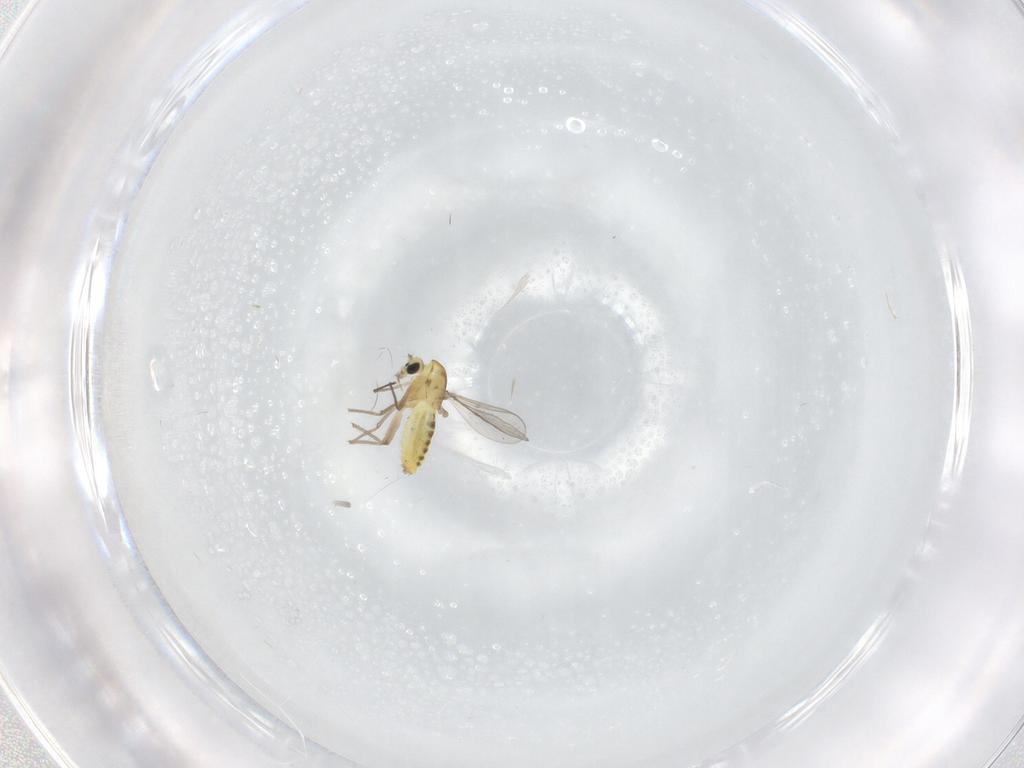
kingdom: Animalia
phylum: Arthropoda
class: Insecta
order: Diptera
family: Chironomidae
